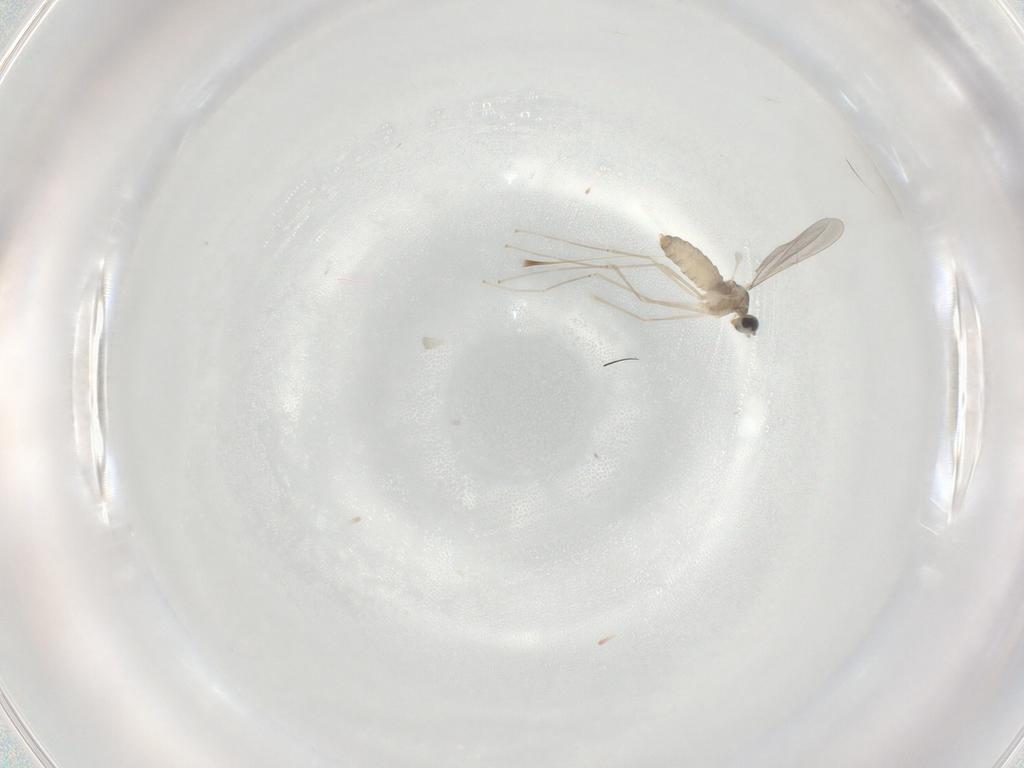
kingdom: Animalia
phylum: Arthropoda
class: Insecta
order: Diptera
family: Cecidomyiidae
